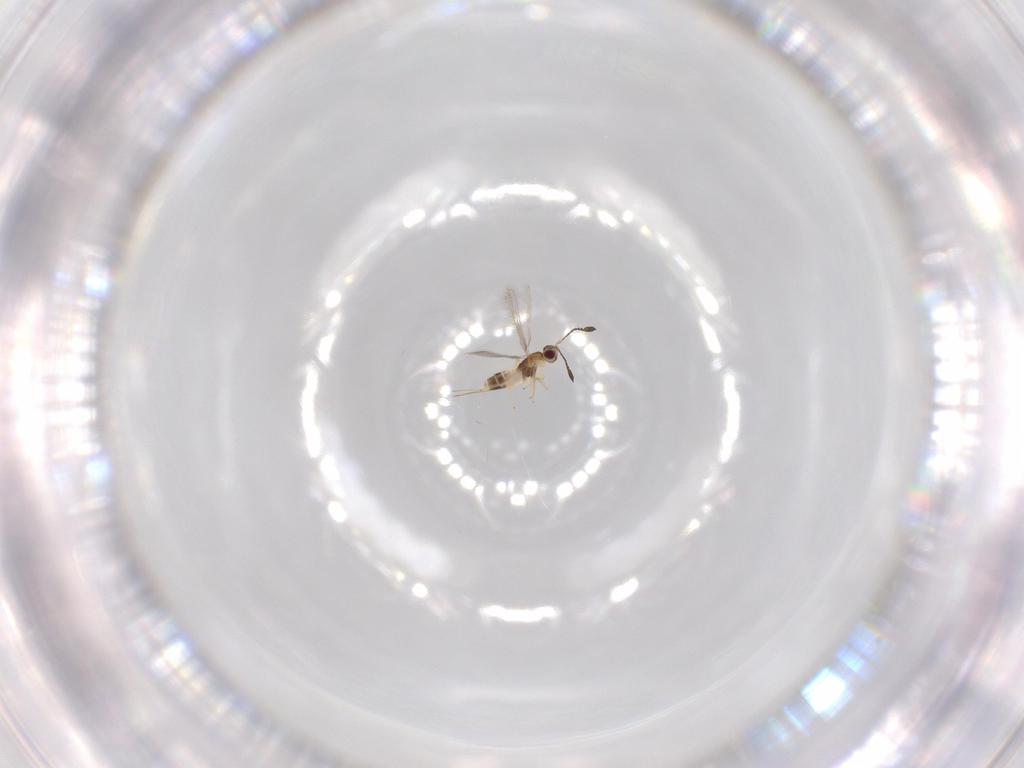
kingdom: Animalia
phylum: Arthropoda
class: Insecta
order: Hymenoptera
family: Mymaridae
